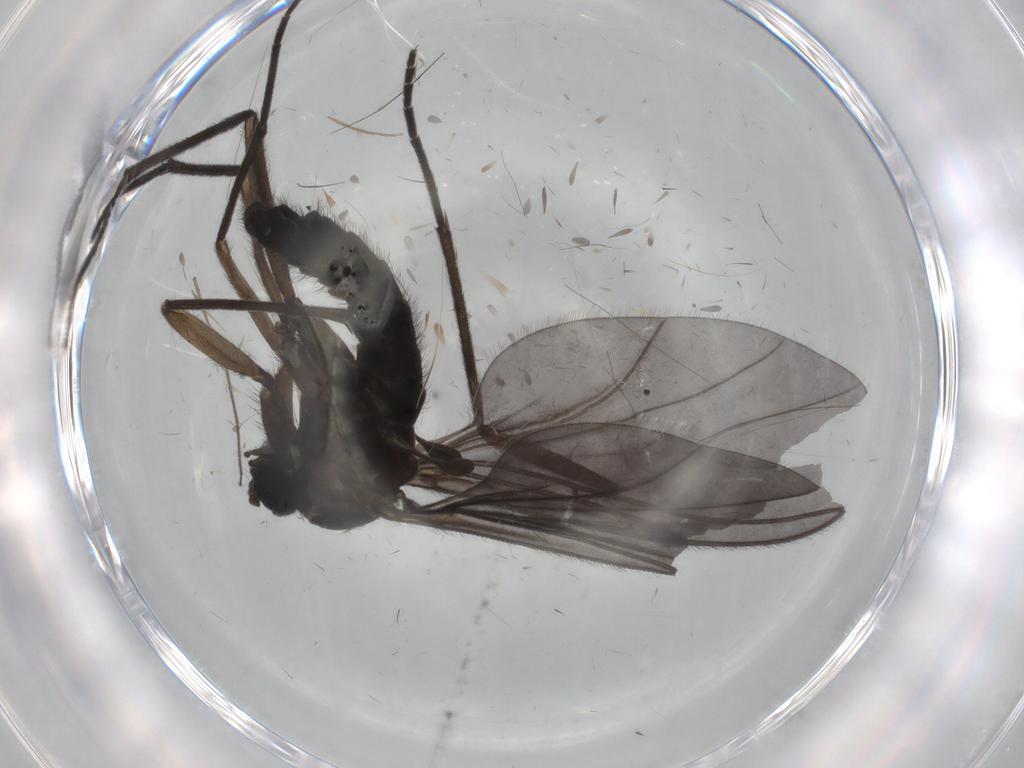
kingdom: Animalia
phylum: Arthropoda
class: Insecta
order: Diptera
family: Sciaridae
